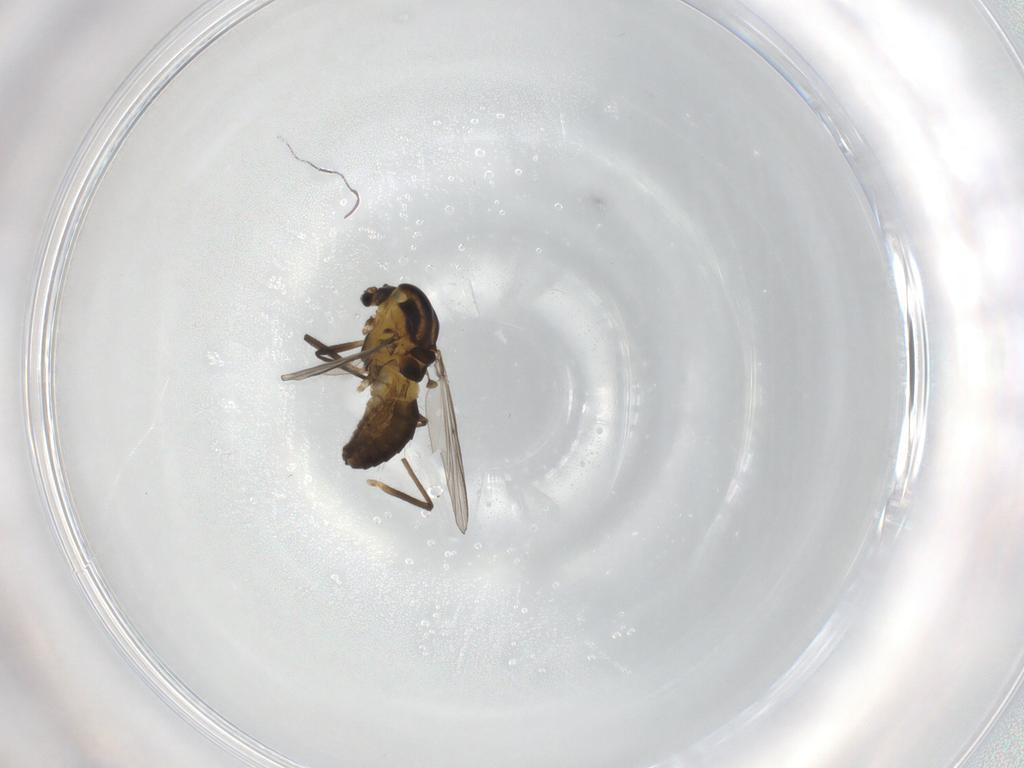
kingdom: Animalia
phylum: Arthropoda
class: Insecta
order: Diptera
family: Chironomidae
